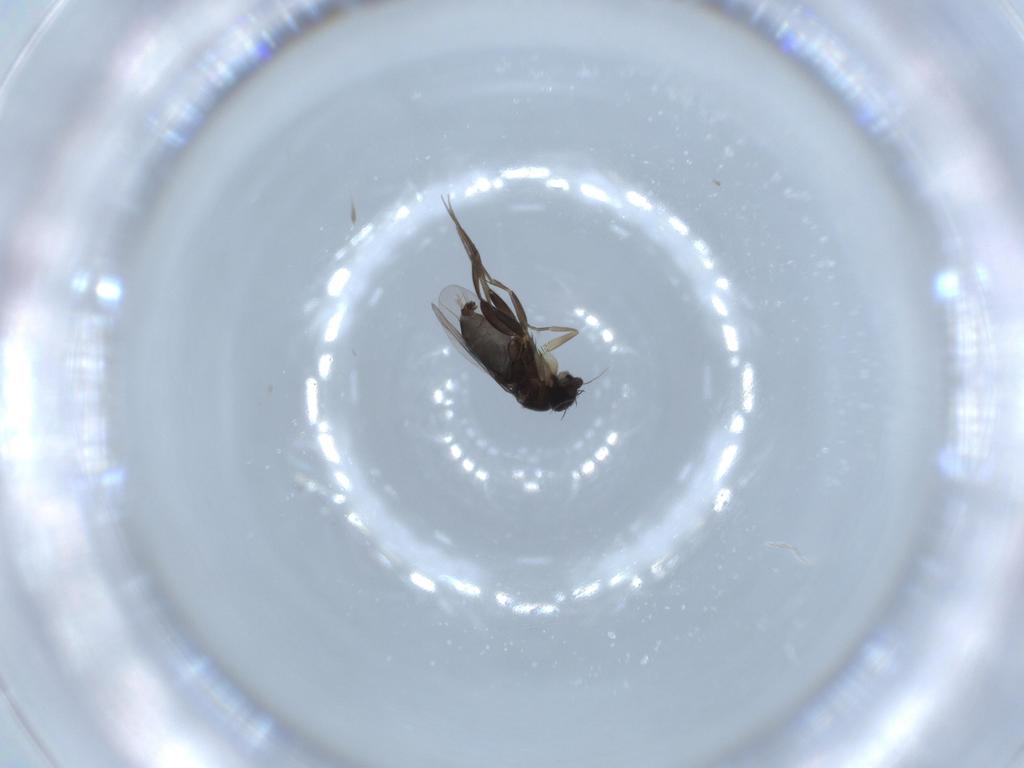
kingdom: Animalia
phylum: Arthropoda
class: Insecta
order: Diptera
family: Phoridae
